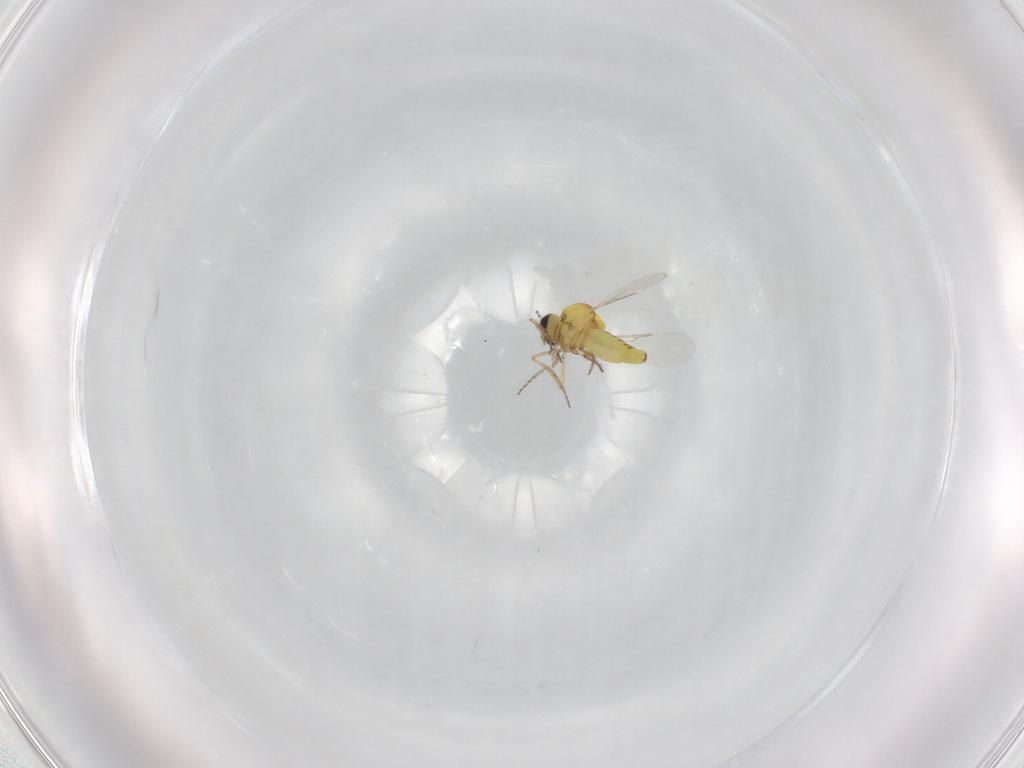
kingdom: Animalia
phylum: Arthropoda
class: Insecta
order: Diptera
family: Ceratopogonidae
